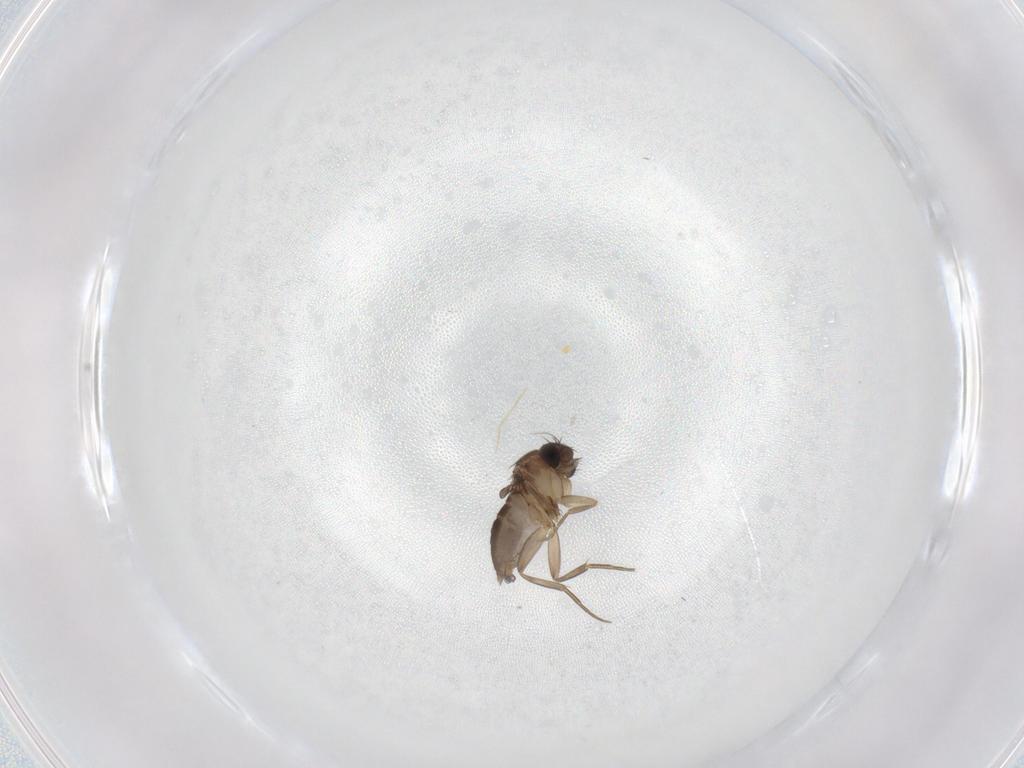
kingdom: Animalia
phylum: Arthropoda
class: Insecta
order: Diptera
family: Phoridae
